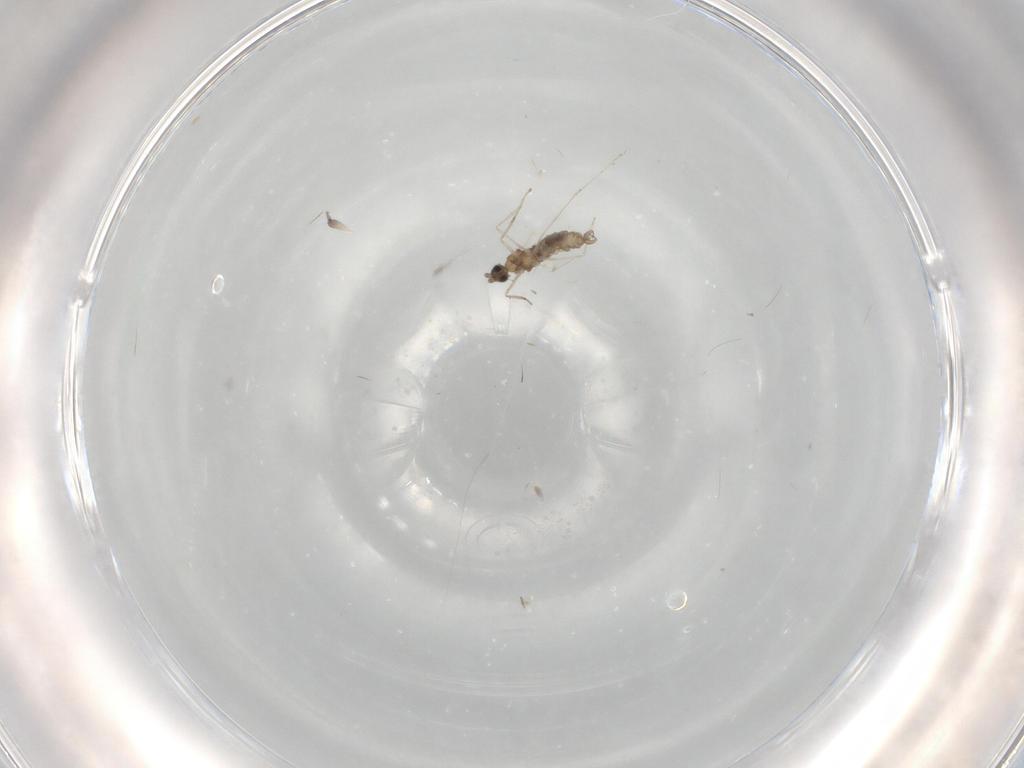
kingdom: Animalia
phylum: Arthropoda
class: Insecta
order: Diptera
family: Cecidomyiidae
